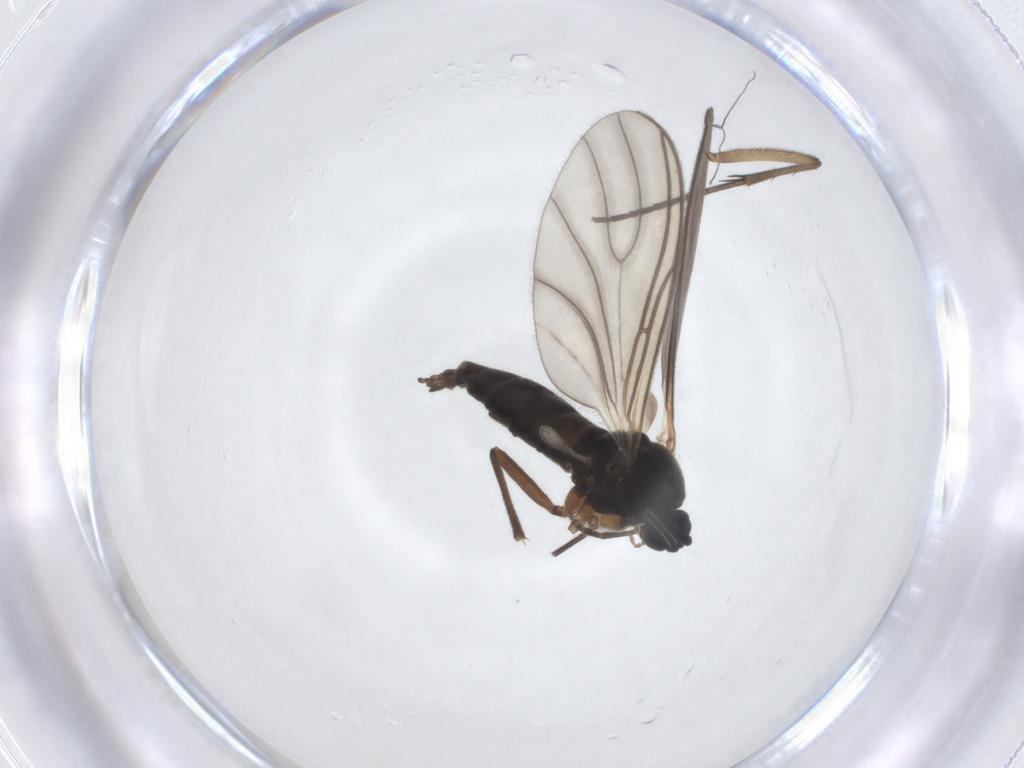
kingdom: Animalia
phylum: Arthropoda
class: Insecta
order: Diptera
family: Sciaridae
